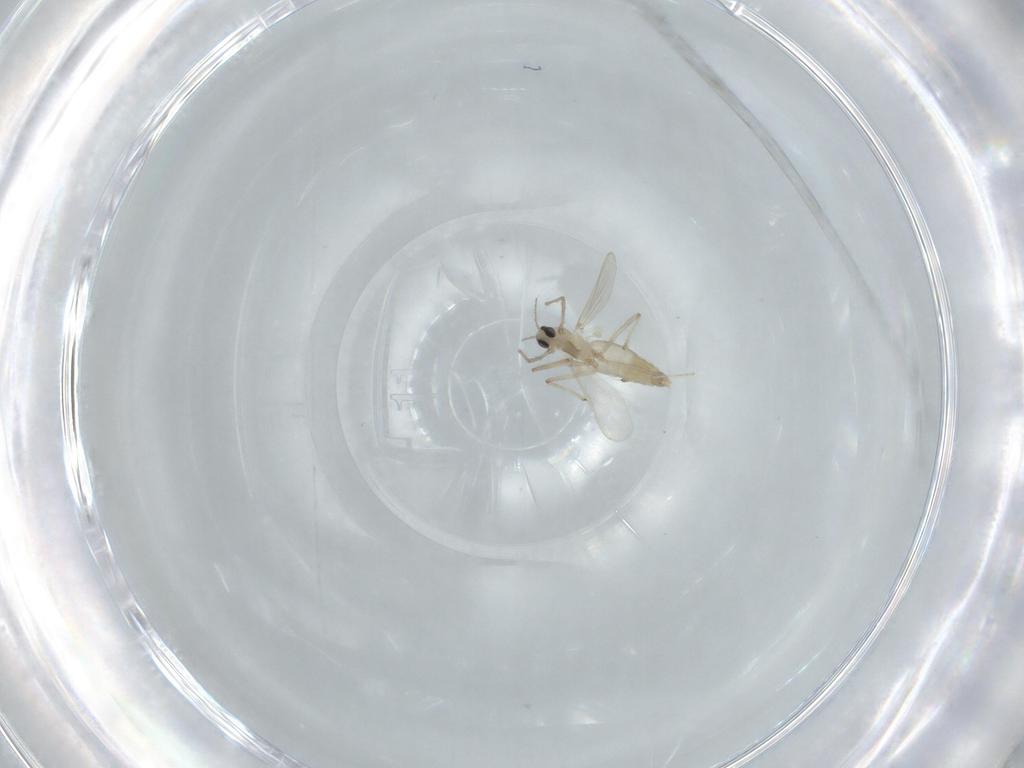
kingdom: Animalia
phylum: Arthropoda
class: Insecta
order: Diptera
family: Chironomidae
